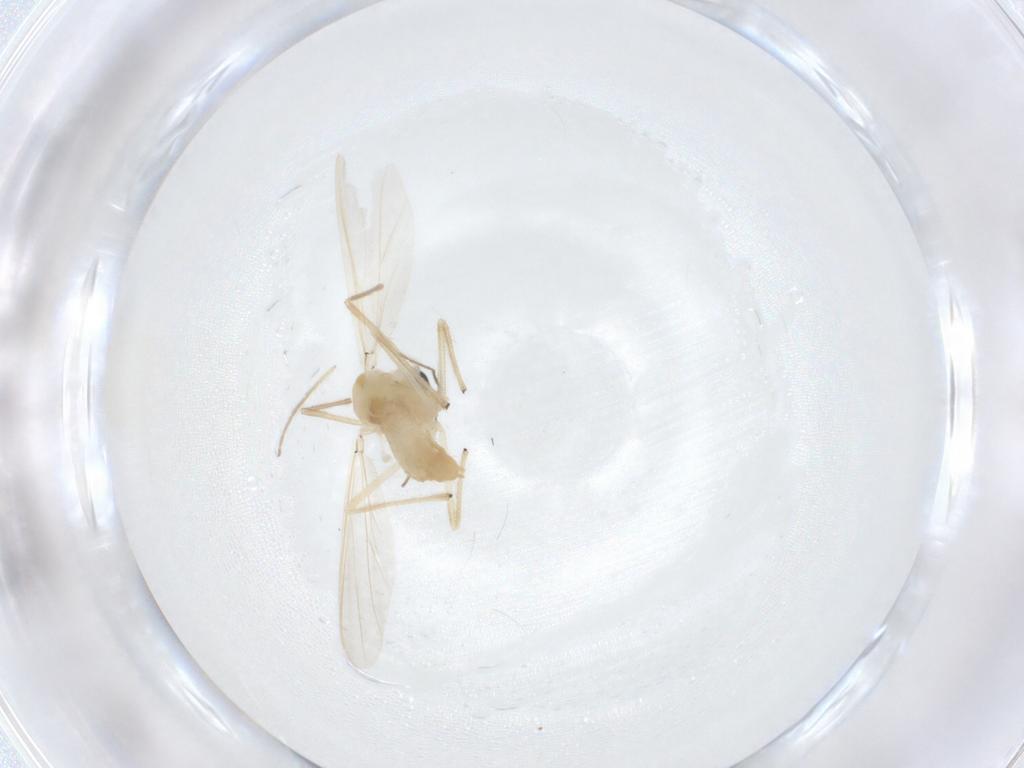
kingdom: Animalia
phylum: Arthropoda
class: Insecta
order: Diptera
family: Chironomidae
